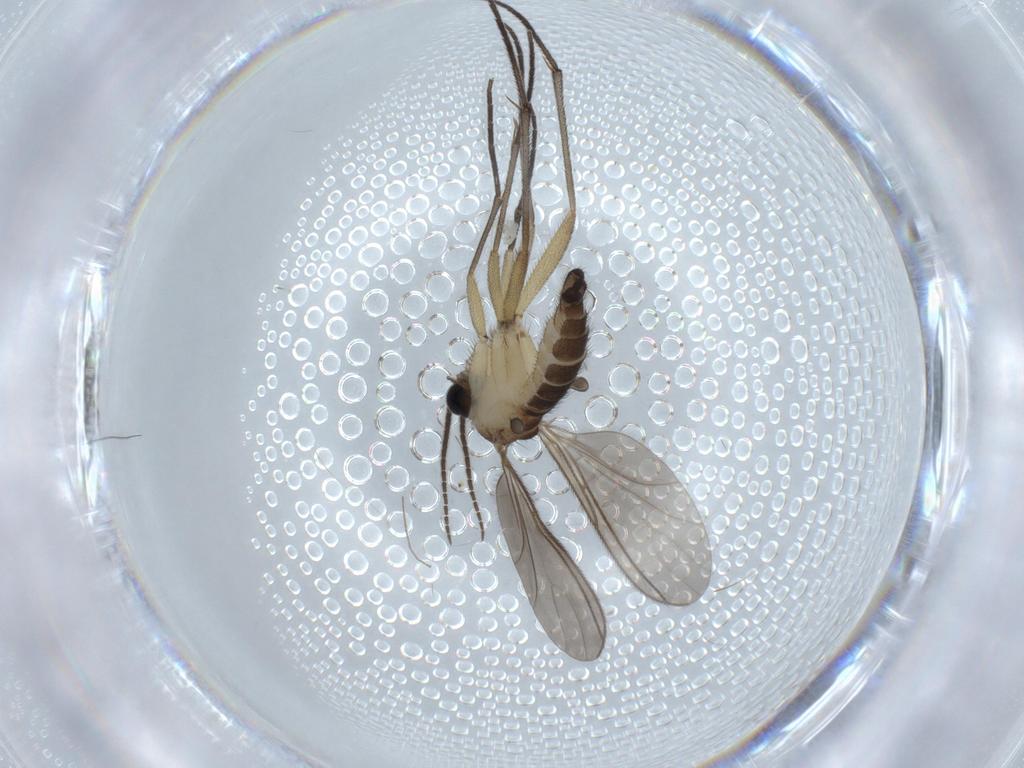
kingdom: Animalia
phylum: Arthropoda
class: Insecta
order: Diptera
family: Sciaridae
